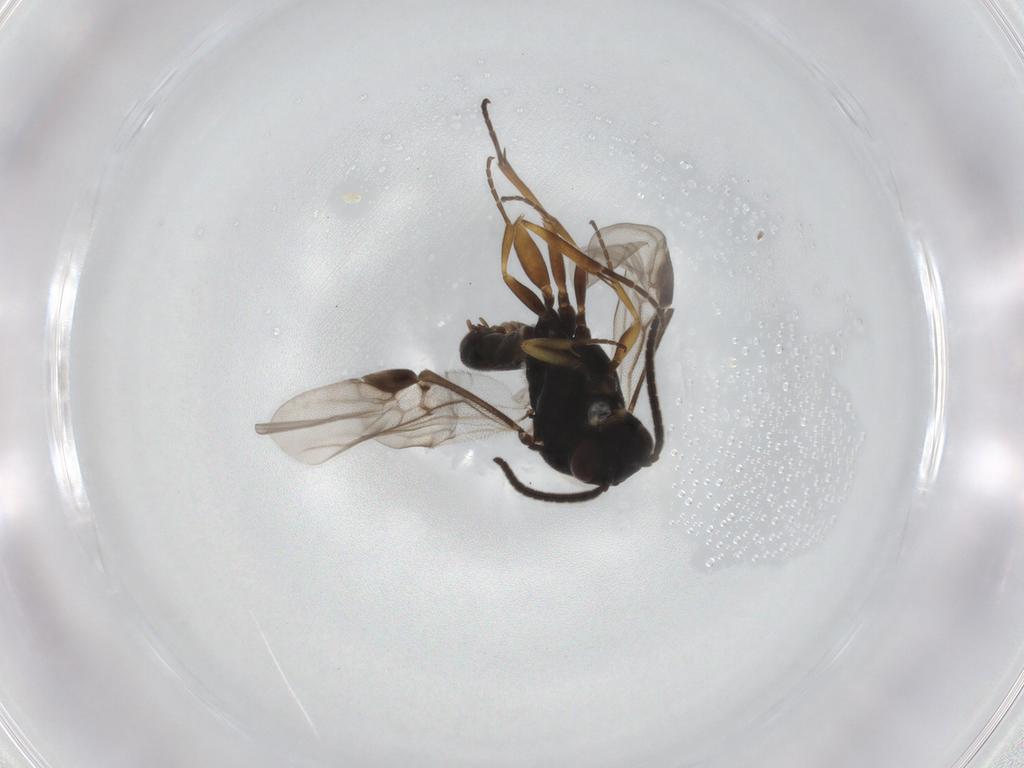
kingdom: Animalia
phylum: Arthropoda
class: Insecta
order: Hymenoptera
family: Braconidae
